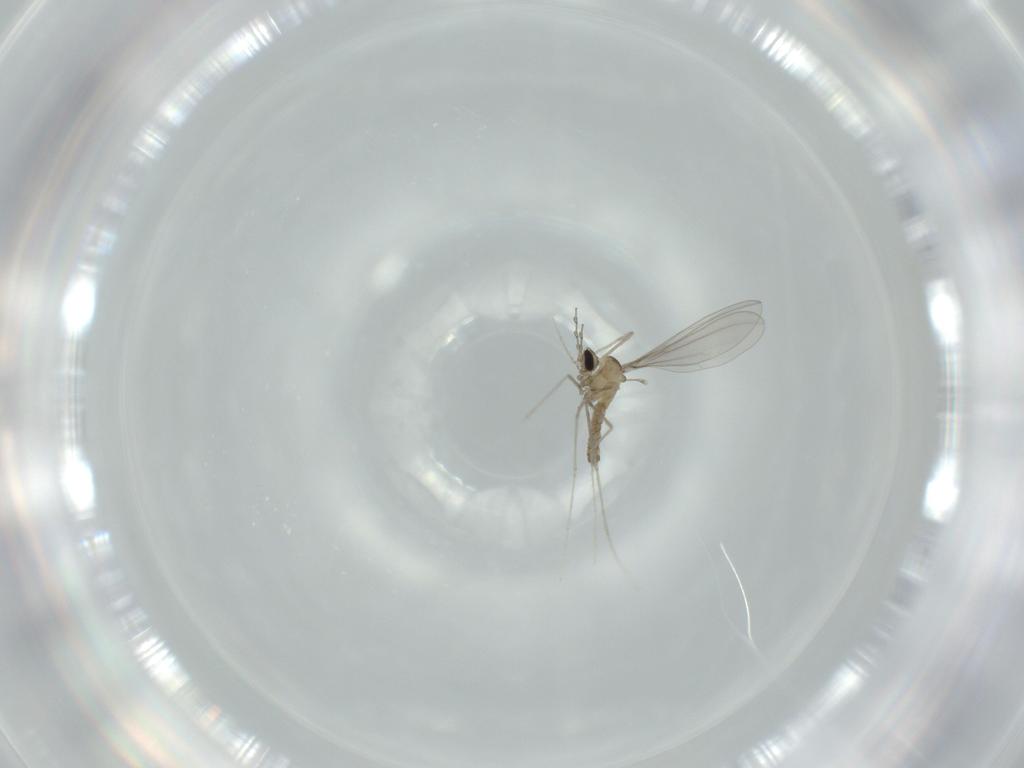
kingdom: Animalia
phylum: Arthropoda
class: Insecta
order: Diptera
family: Cecidomyiidae
